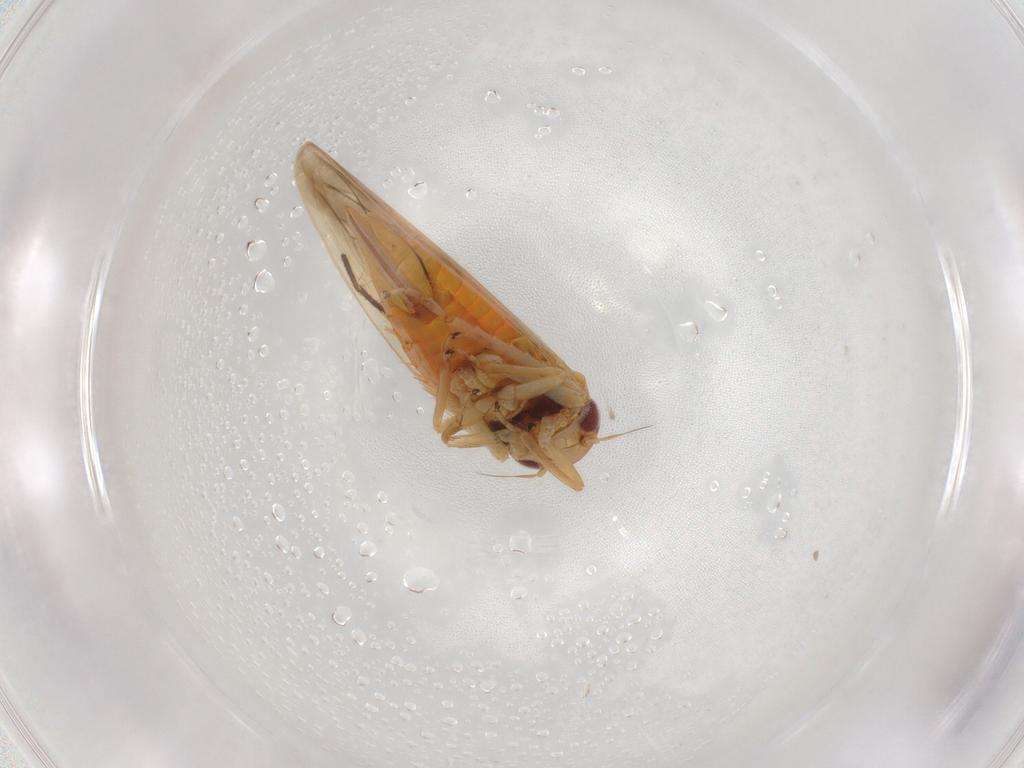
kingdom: Animalia
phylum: Arthropoda
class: Insecta
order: Hemiptera
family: Cicadellidae
